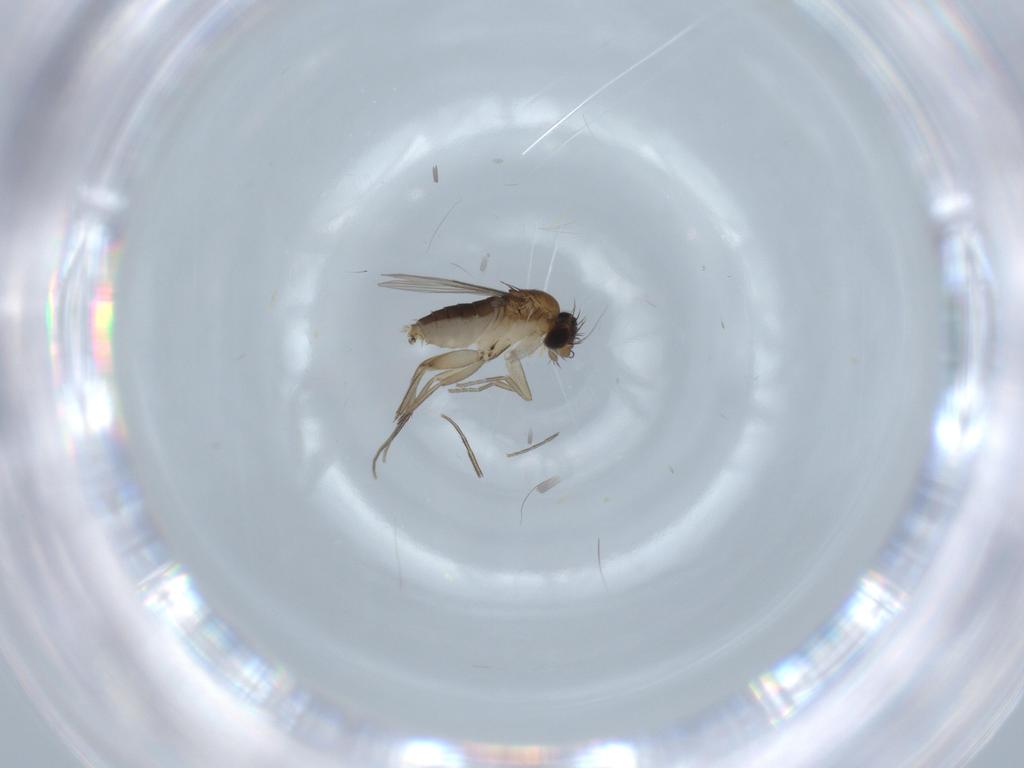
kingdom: Animalia
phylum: Arthropoda
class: Insecta
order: Diptera
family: Phoridae
